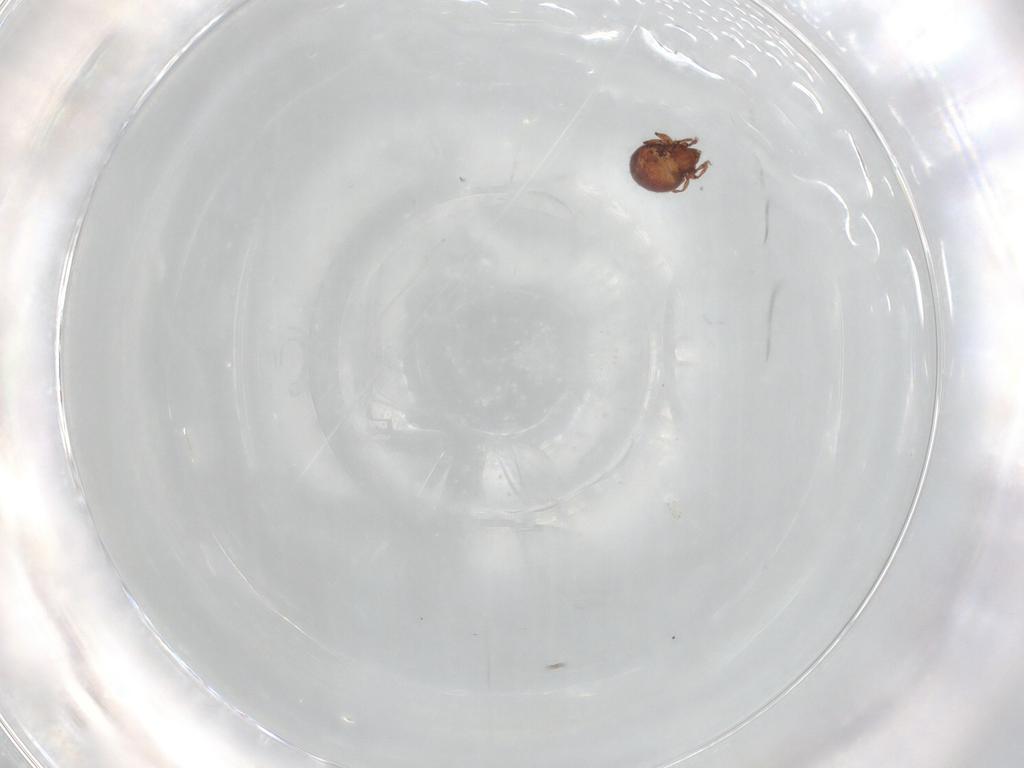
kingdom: Animalia
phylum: Arthropoda
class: Arachnida
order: Sarcoptiformes
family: Oribatulidae
